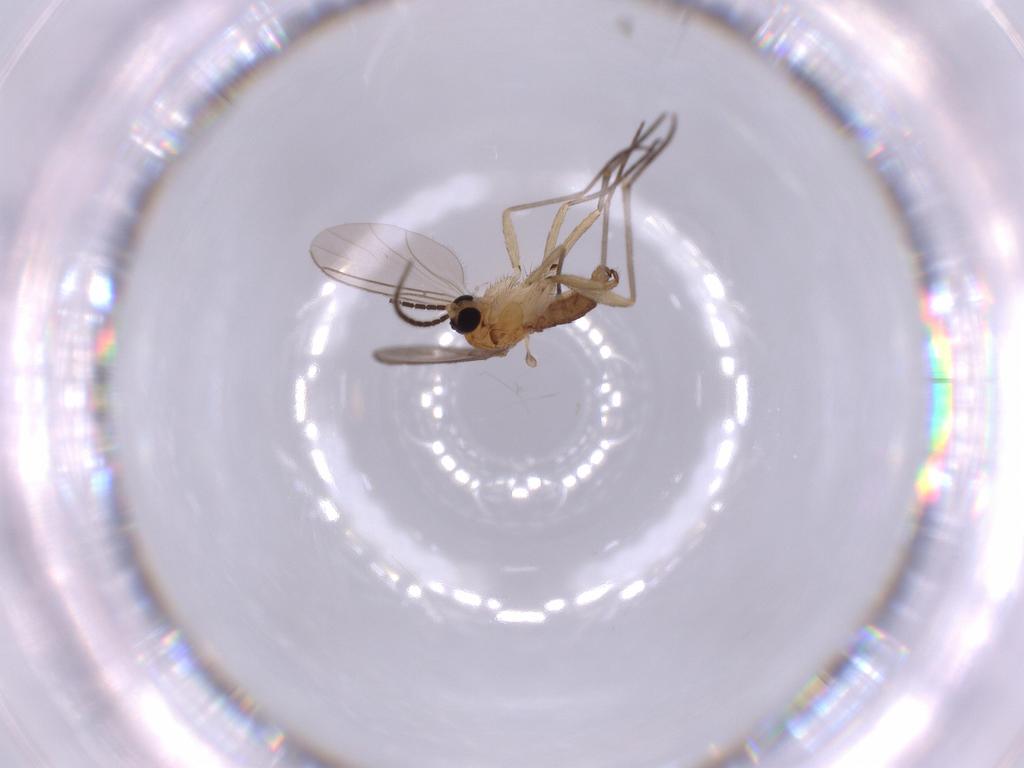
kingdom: Animalia
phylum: Arthropoda
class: Insecta
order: Diptera
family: Sciaridae
